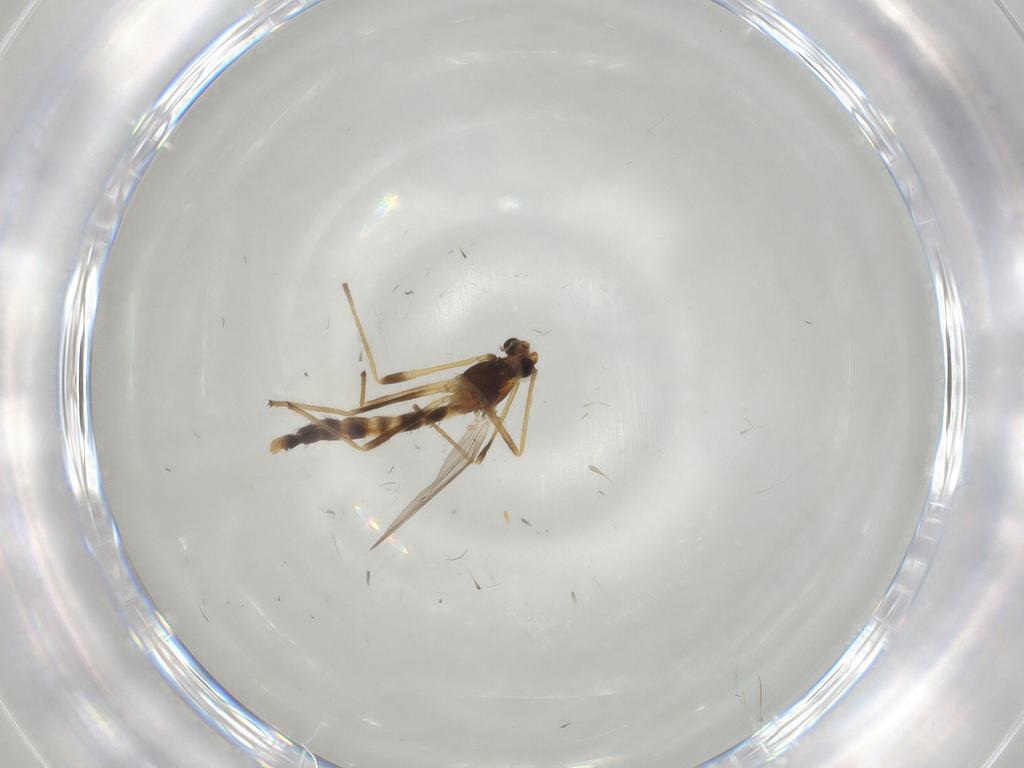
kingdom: Animalia
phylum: Arthropoda
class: Insecta
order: Diptera
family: Chironomidae
